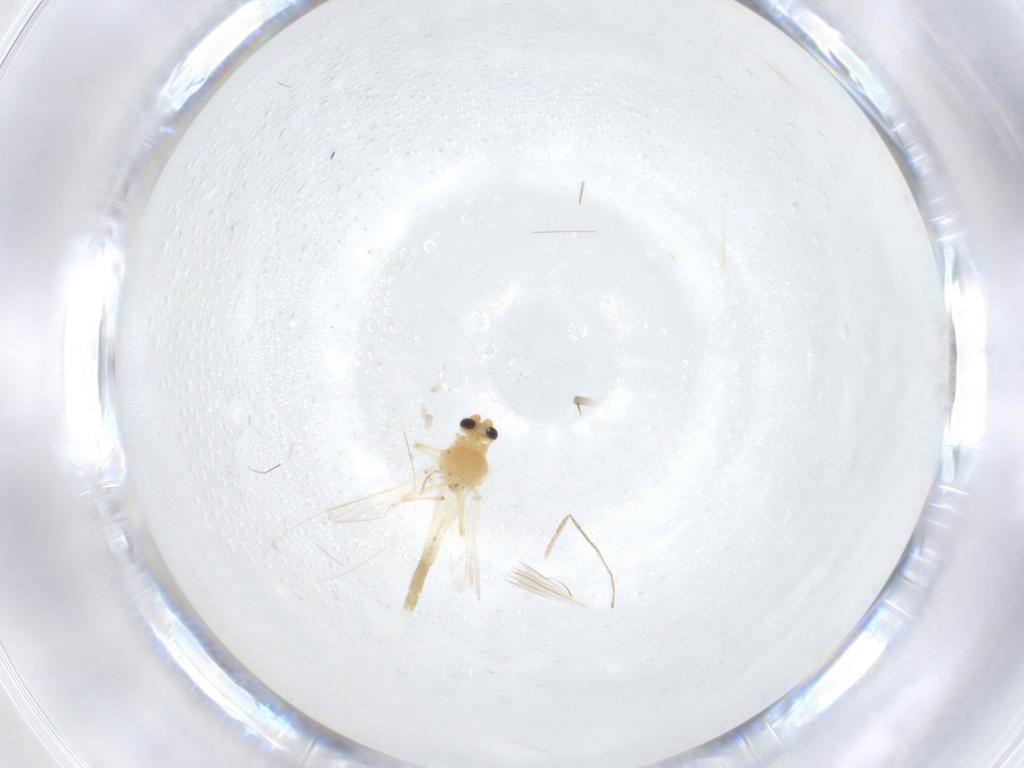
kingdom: Animalia
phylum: Arthropoda
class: Insecta
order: Diptera
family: Cecidomyiidae
